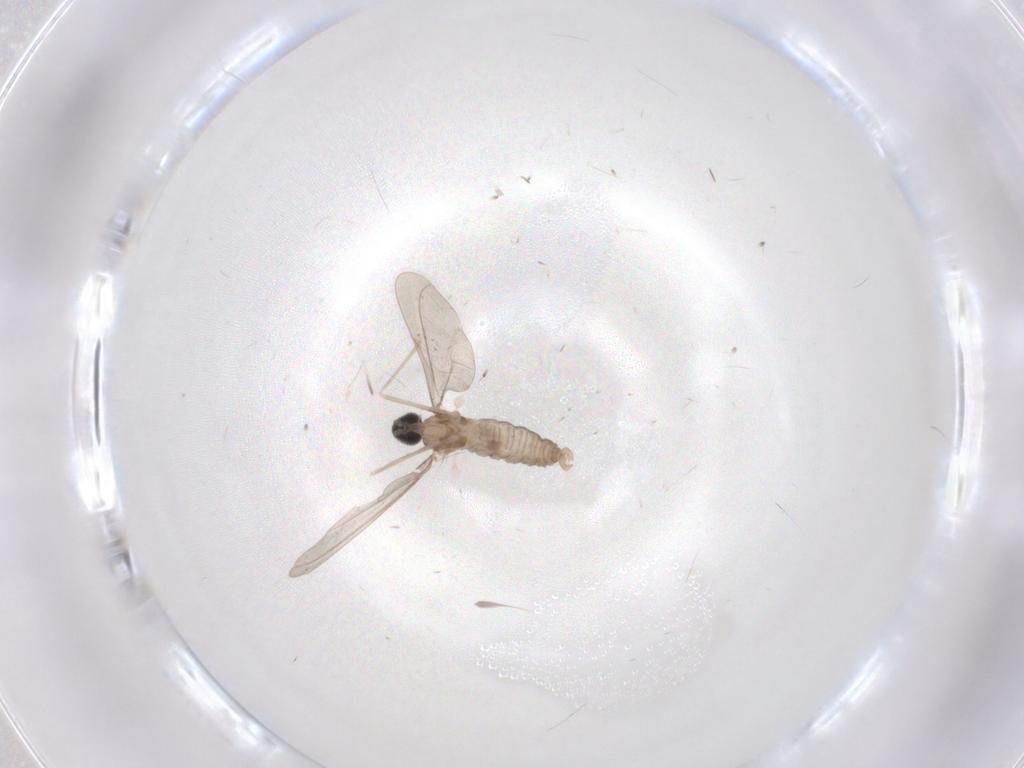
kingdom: Animalia
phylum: Arthropoda
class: Insecta
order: Diptera
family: Cecidomyiidae
